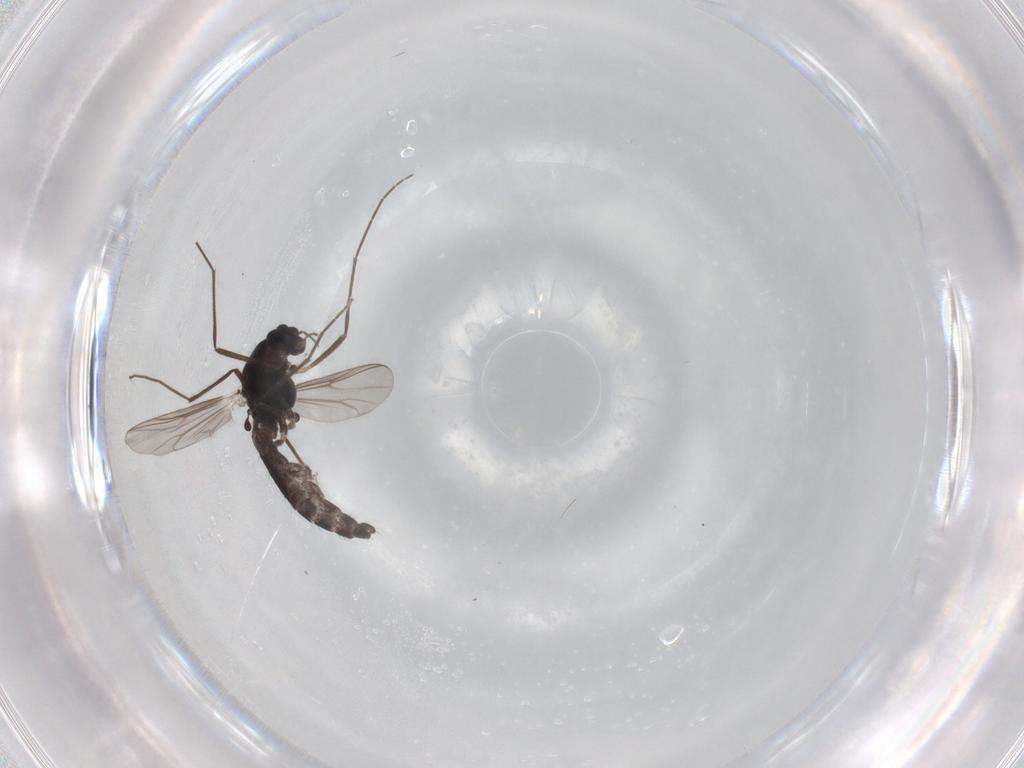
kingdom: Animalia
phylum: Arthropoda
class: Insecta
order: Diptera
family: Chironomidae
